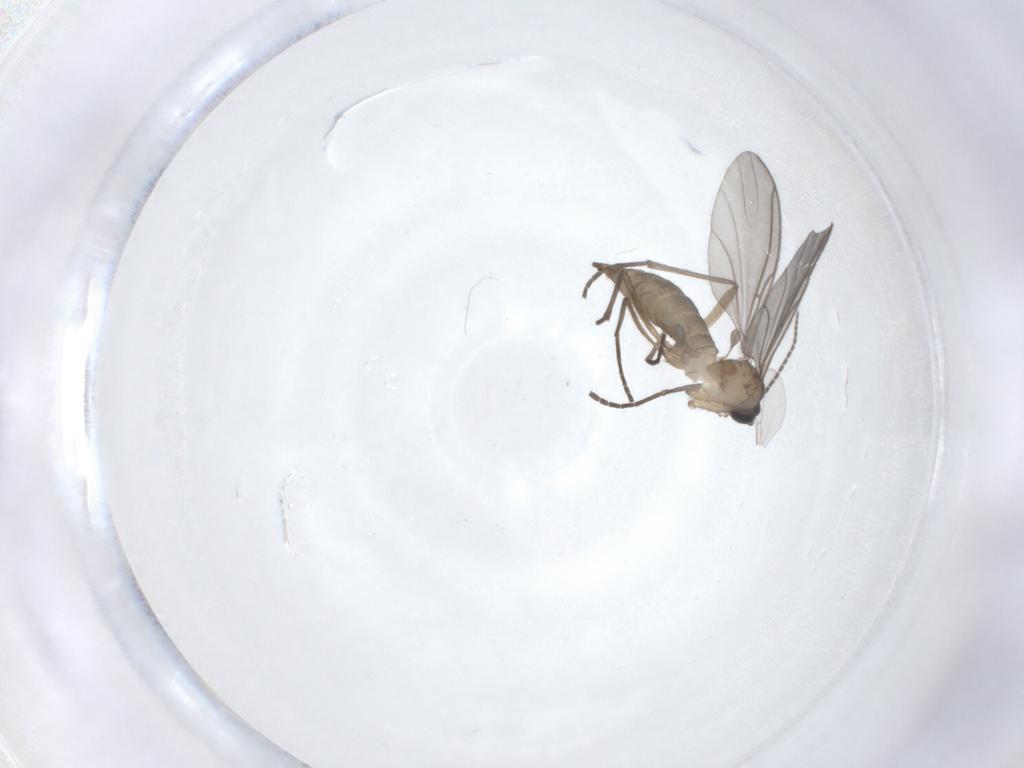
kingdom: Animalia
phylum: Arthropoda
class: Insecta
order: Diptera
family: Sciaridae
